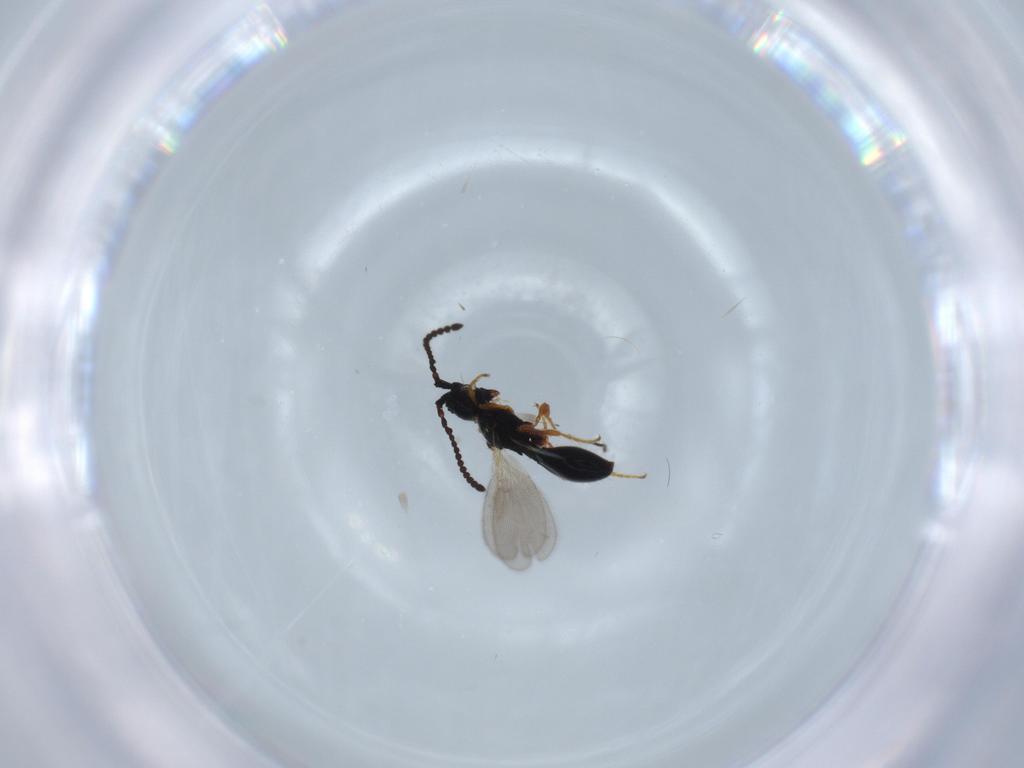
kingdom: Animalia
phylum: Arthropoda
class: Insecta
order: Hymenoptera
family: Diapriidae
